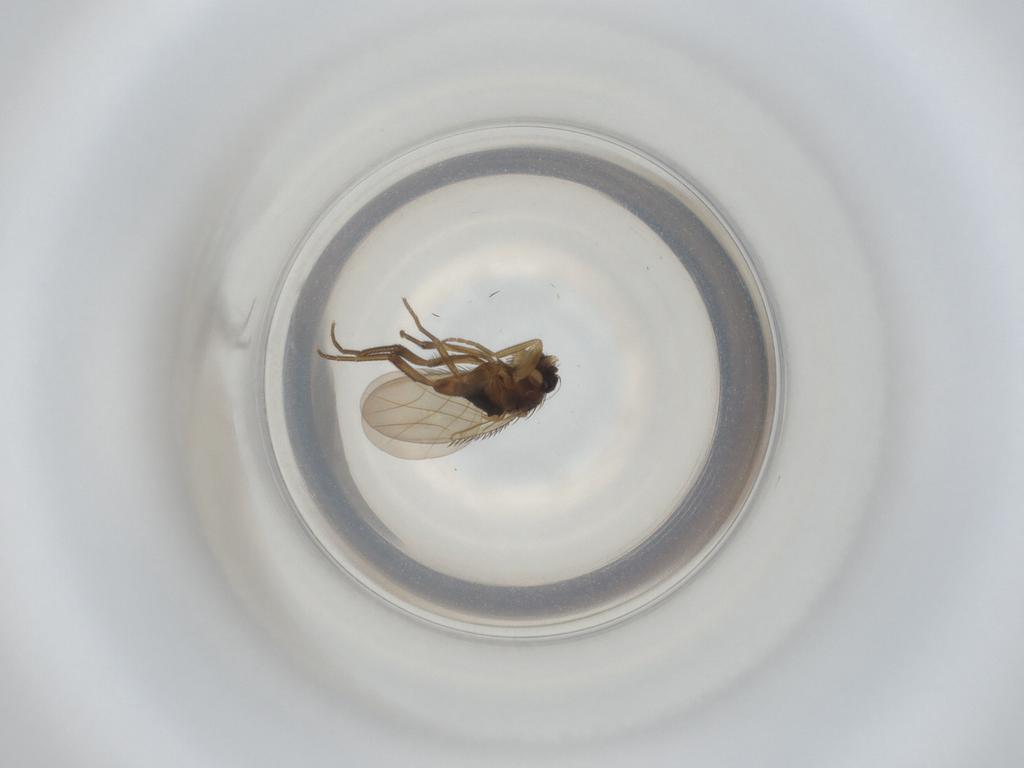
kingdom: Animalia
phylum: Arthropoda
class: Insecta
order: Diptera
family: Phoridae
